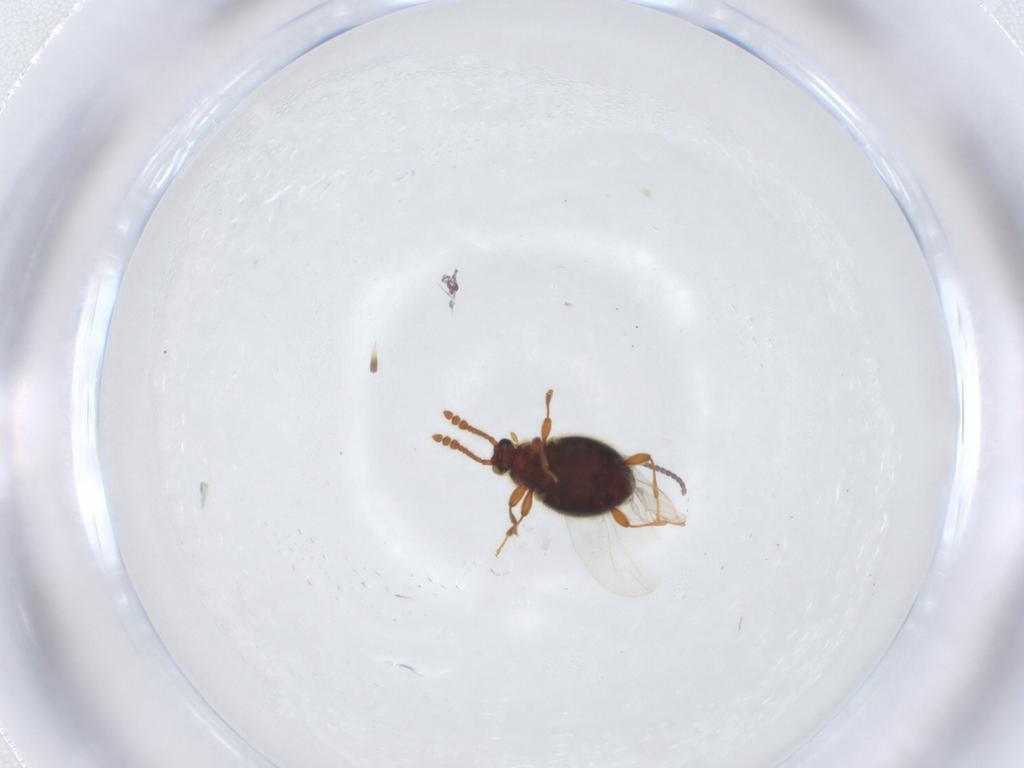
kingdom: Animalia
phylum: Arthropoda
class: Insecta
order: Coleoptera
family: Staphylinidae
